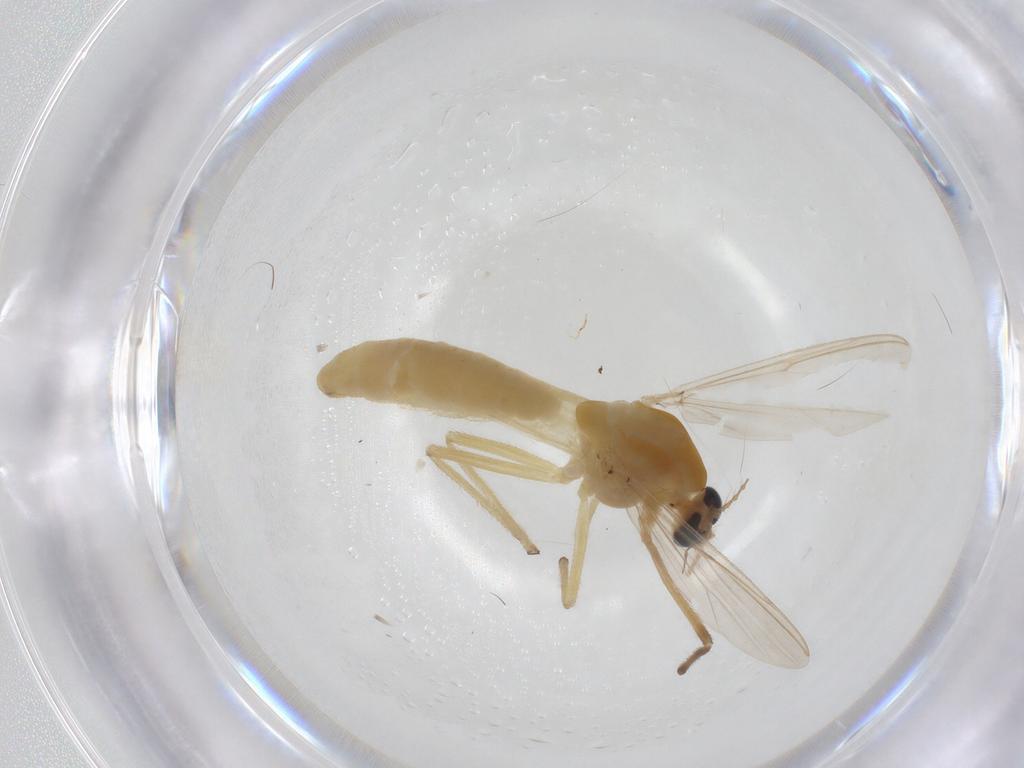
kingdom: Animalia
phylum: Arthropoda
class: Insecta
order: Diptera
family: Chironomidae
